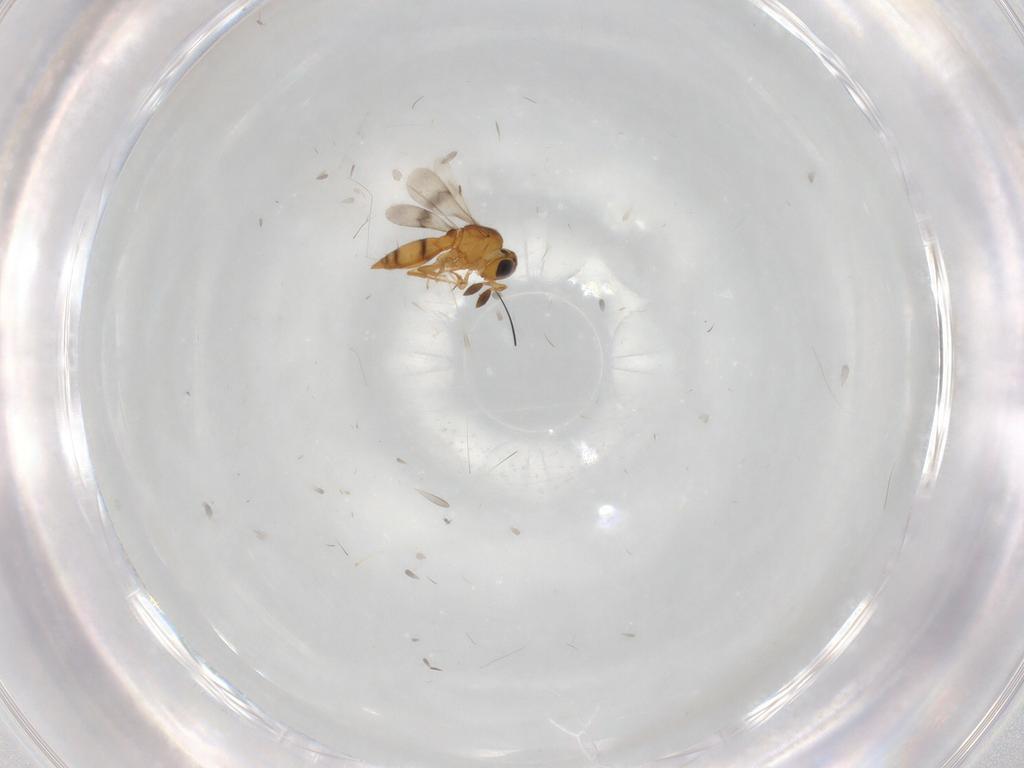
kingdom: Animalia
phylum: Arthropoda
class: Insecta
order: Hymenoptera
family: Scelionidae
